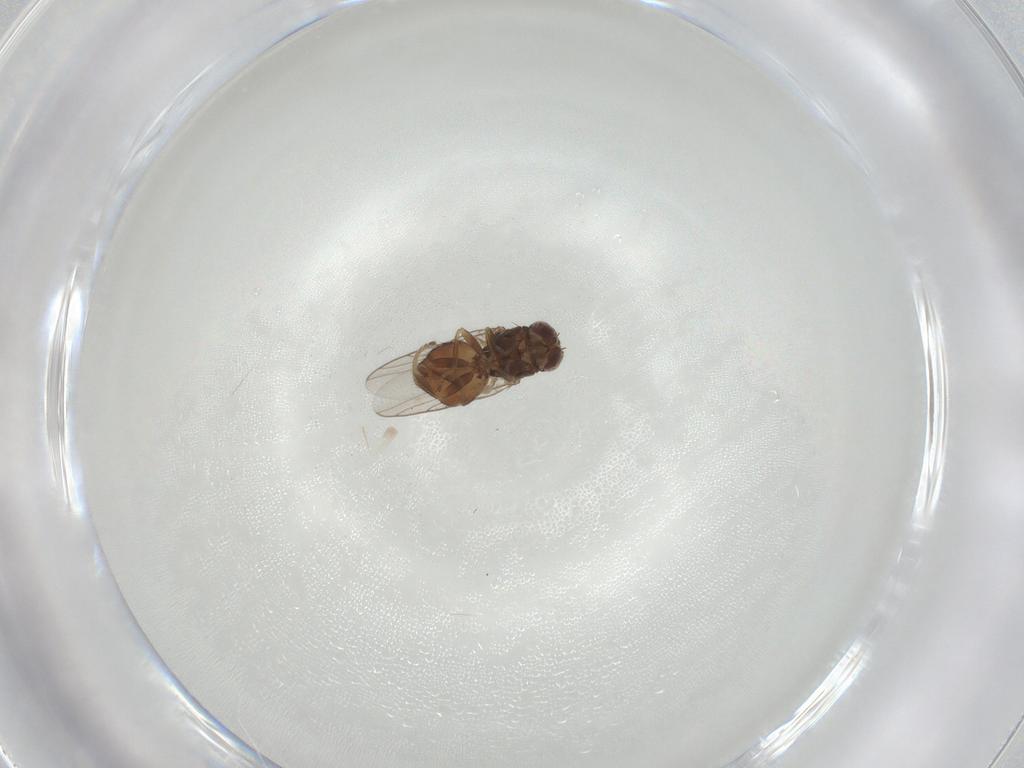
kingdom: Animalia
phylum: Arthropoda
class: Insecta
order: Diptera
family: Chloropidae
